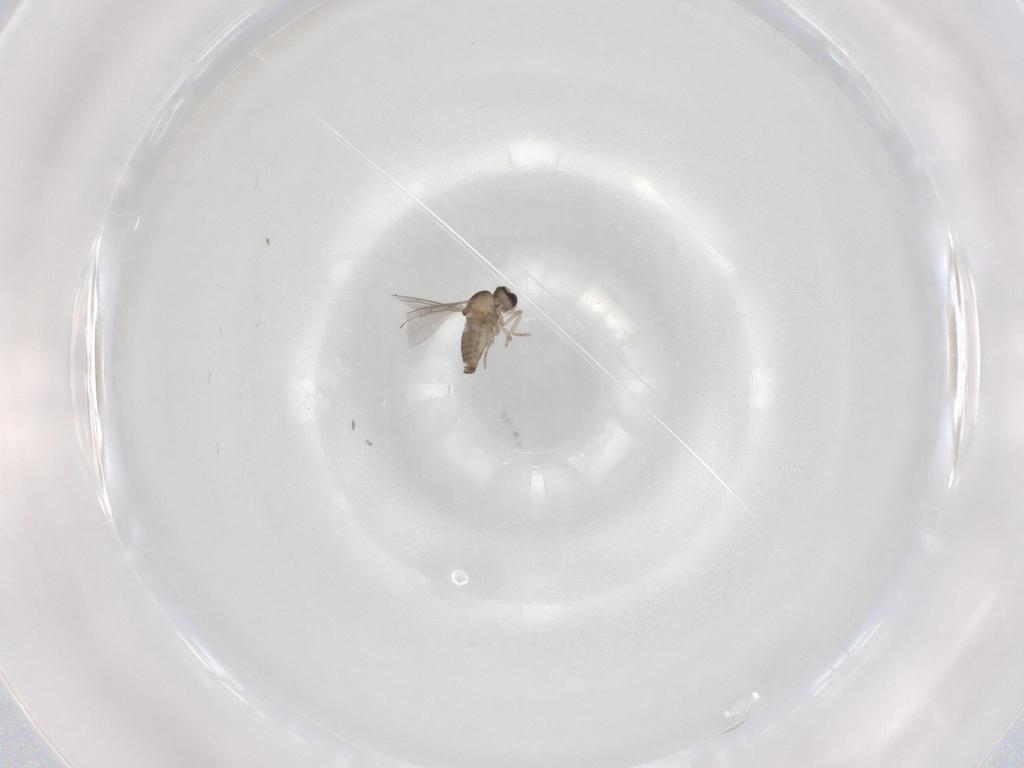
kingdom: Animalia
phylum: Arthropoda
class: Insecta
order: Diptera
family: Cecidomyiidae
